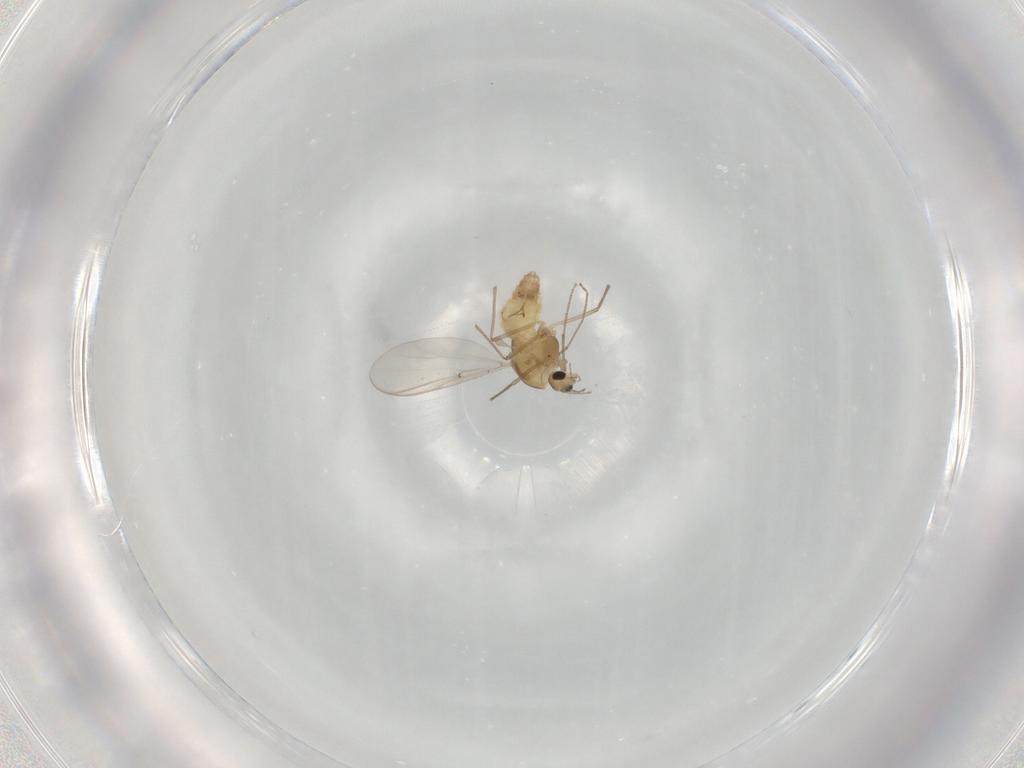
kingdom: Animalia
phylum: Arthropoda
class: Insecta
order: Diptera
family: Chironomidae
